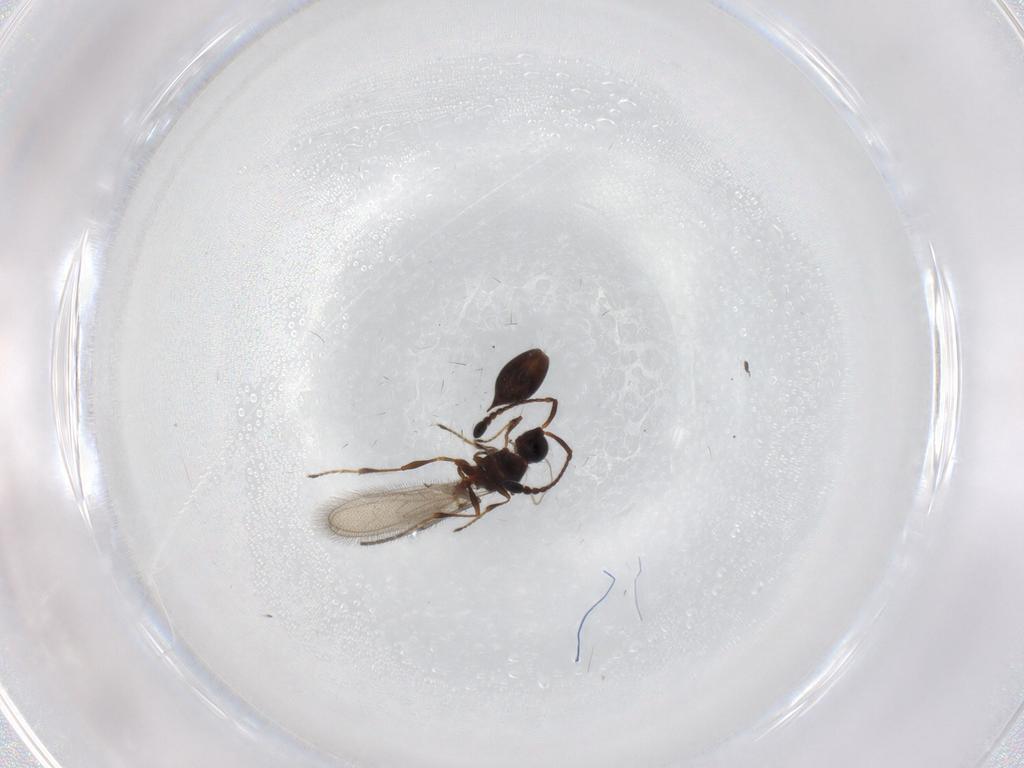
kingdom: Animalia
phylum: Arthropoda
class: Insecta
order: Hymenoptera
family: Diapriidae
